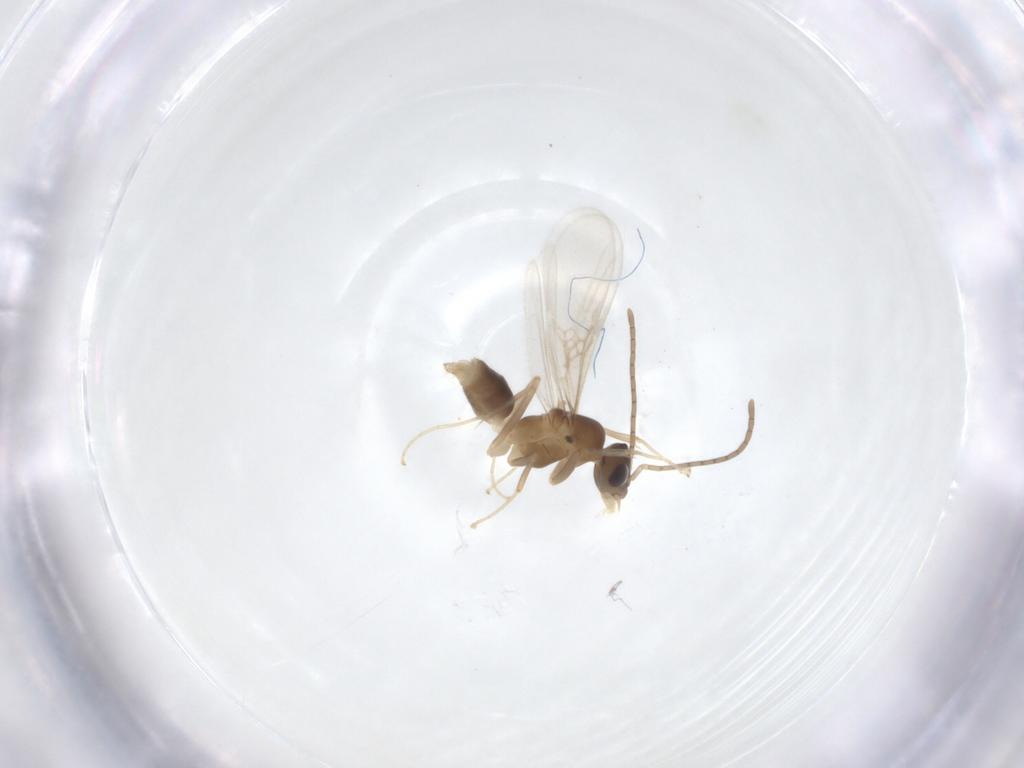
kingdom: Animalia
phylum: Arthropoda
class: Insecta
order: Hymenoptera
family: Formicidae
